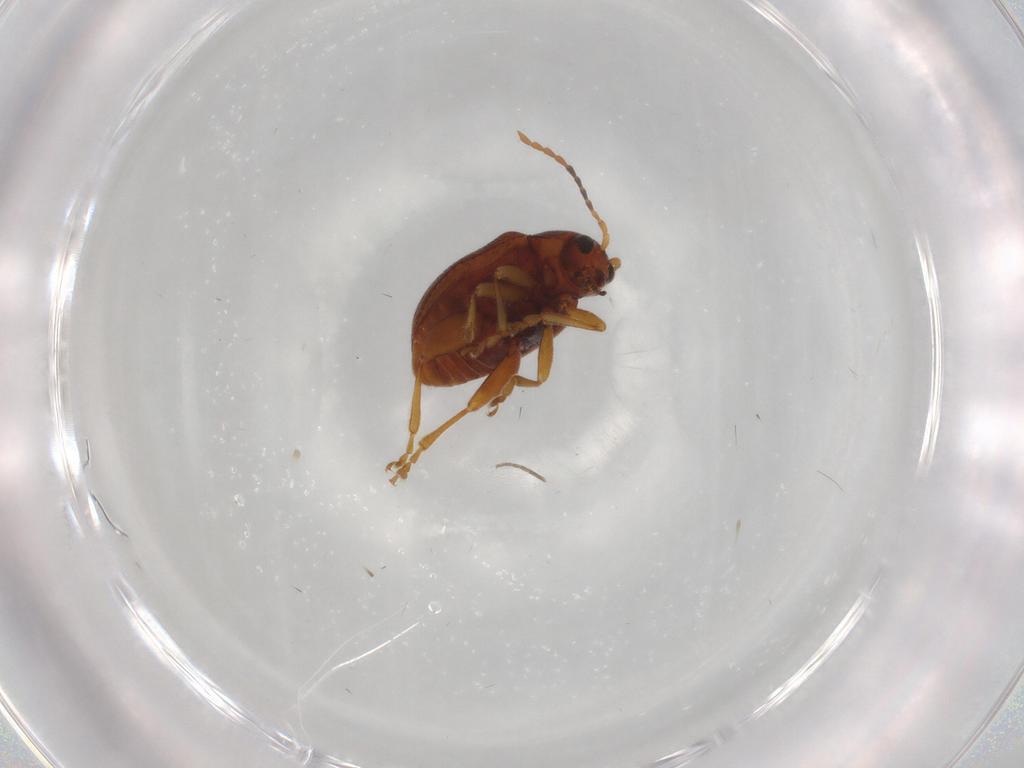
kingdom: Animalia
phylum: Arthropoda
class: Insecta
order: Coleoptera
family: Chrysomelidae
